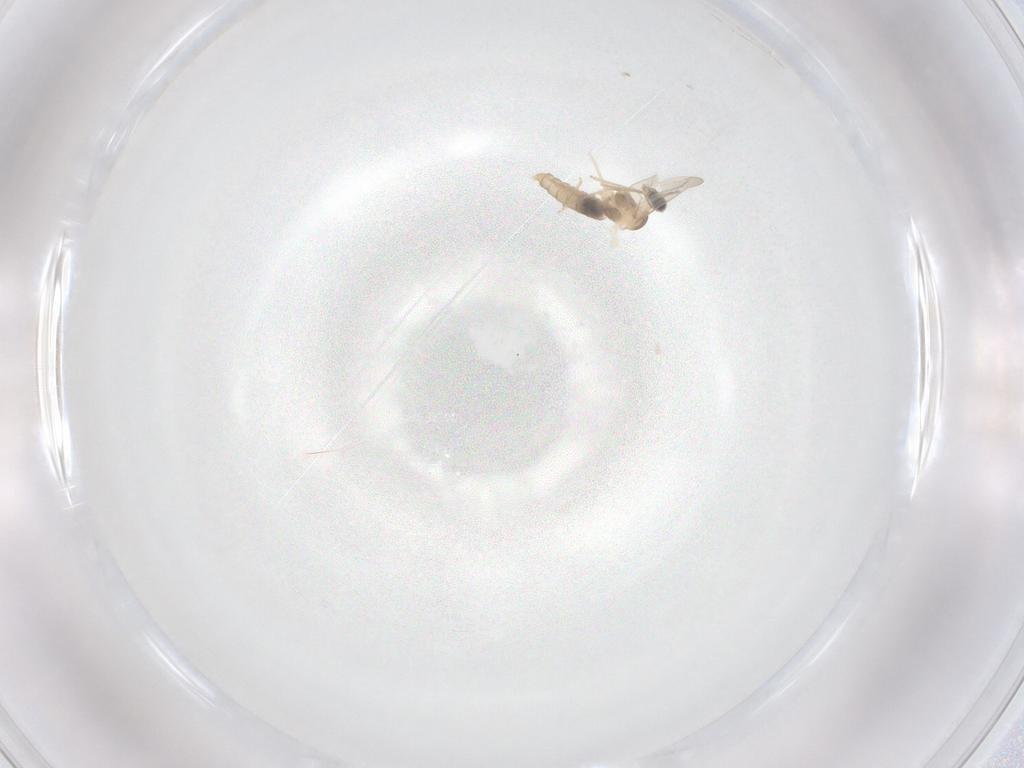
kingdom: Animalia
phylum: Arthropoda
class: Insecta
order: Diptera
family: Cecidomyiidae
